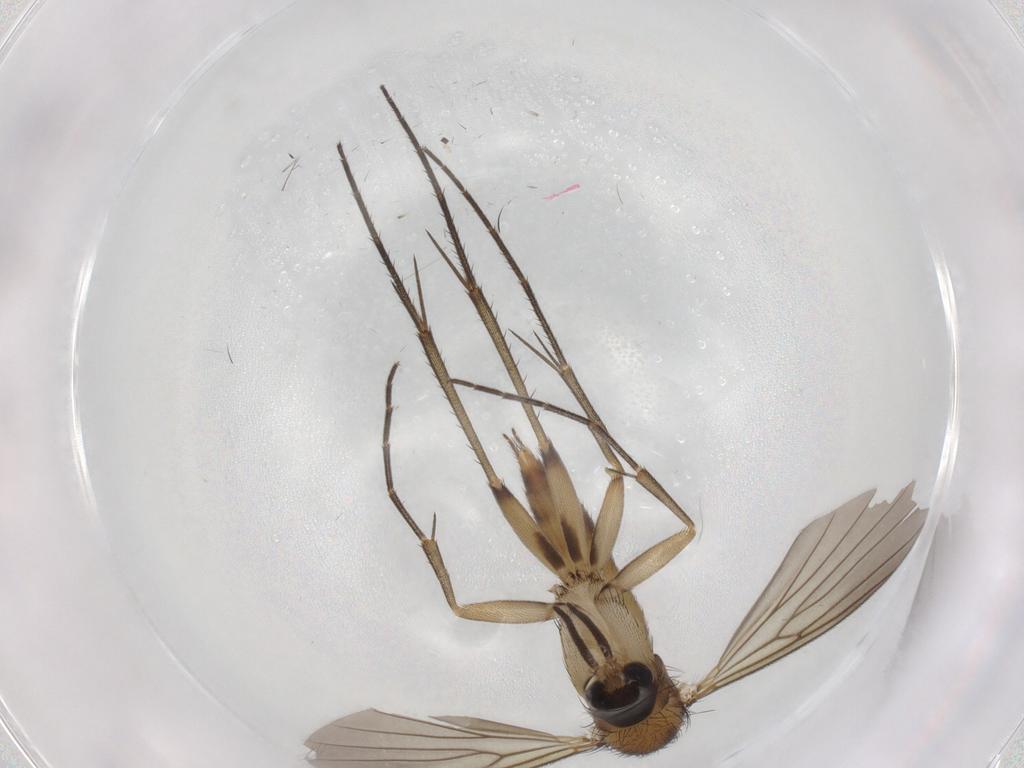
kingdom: Animalia
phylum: Arthropoda
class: Insecta
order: Diptera
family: Mycetophilidae
